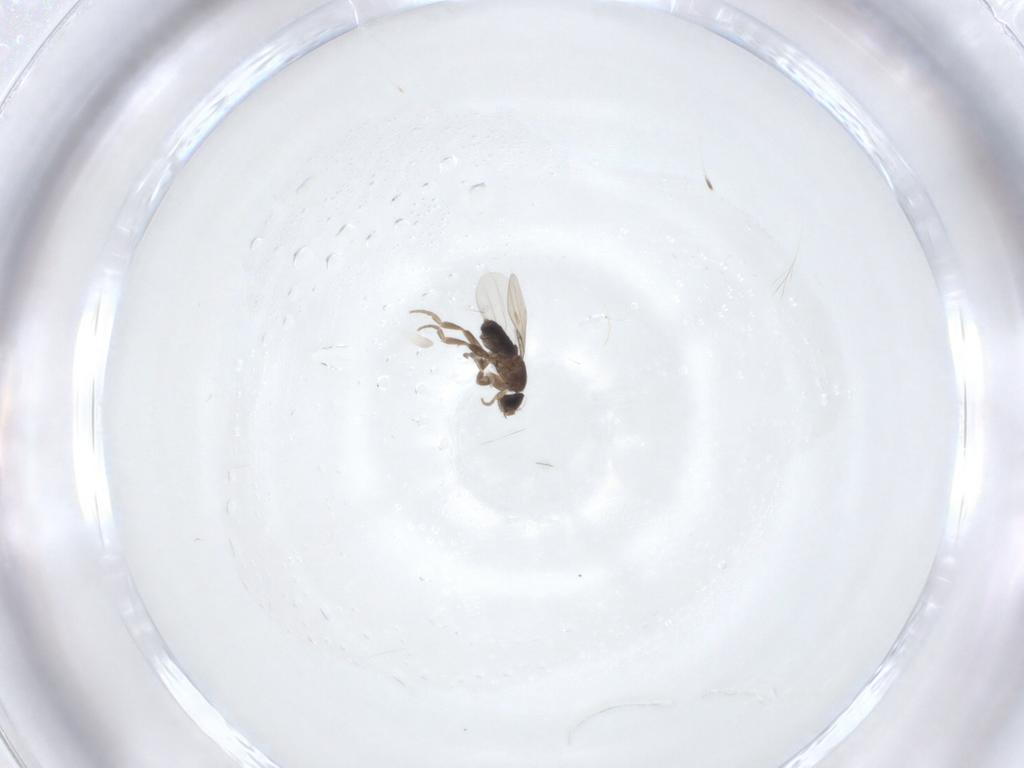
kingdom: Animalia
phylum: Arthropoda
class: Insecta
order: Diptera
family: Phoridae
